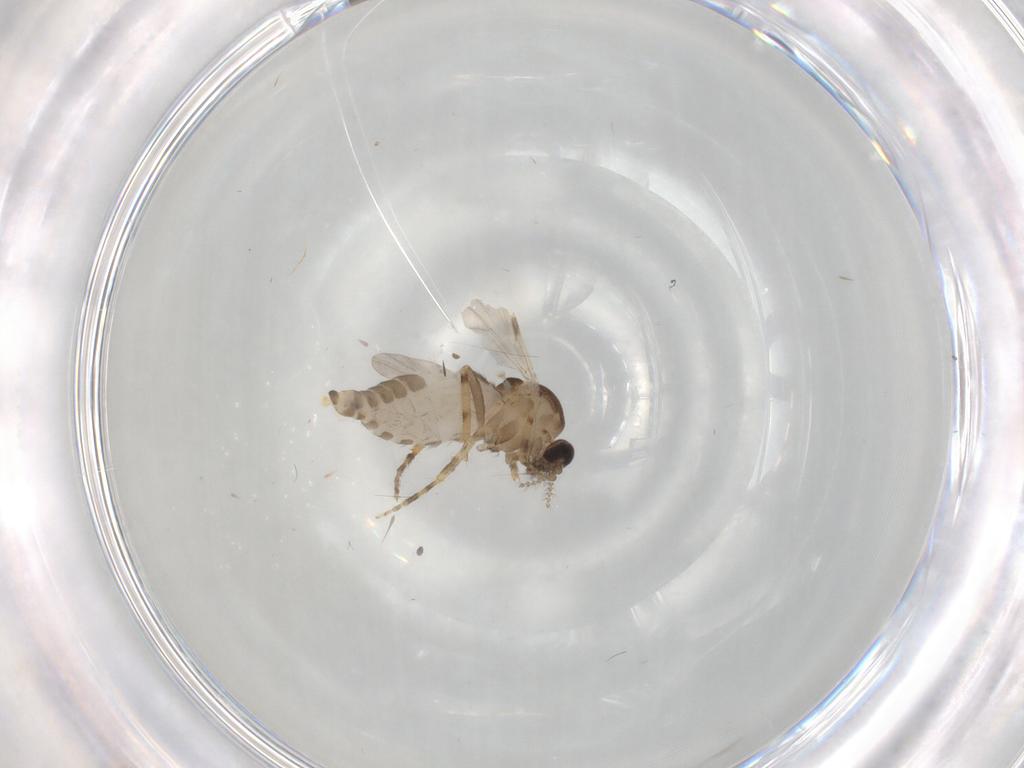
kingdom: Animalia
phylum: Arthropoda
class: Insecta
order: Diptera
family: Ceratopogonidae
